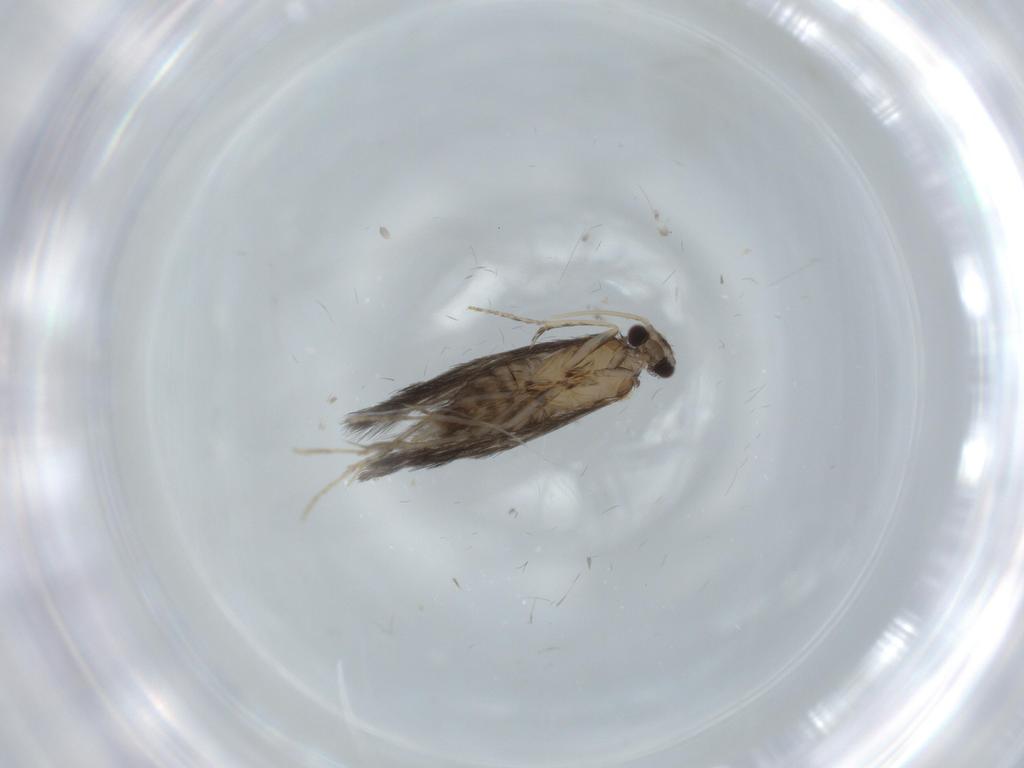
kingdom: Animalia
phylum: Arthropoda
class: Insecta
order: Trichoptera
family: Hydroptilidae
